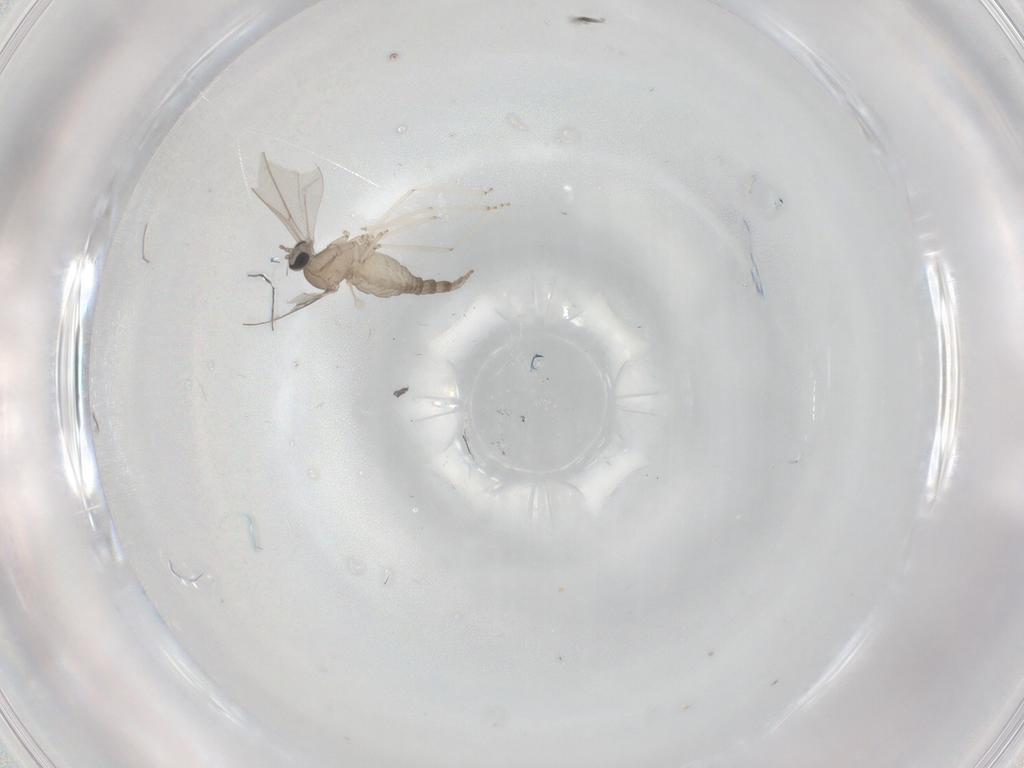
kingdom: Animalia
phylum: Arthropoda
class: Insecta
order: Diptera
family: Cecidomyiidae
